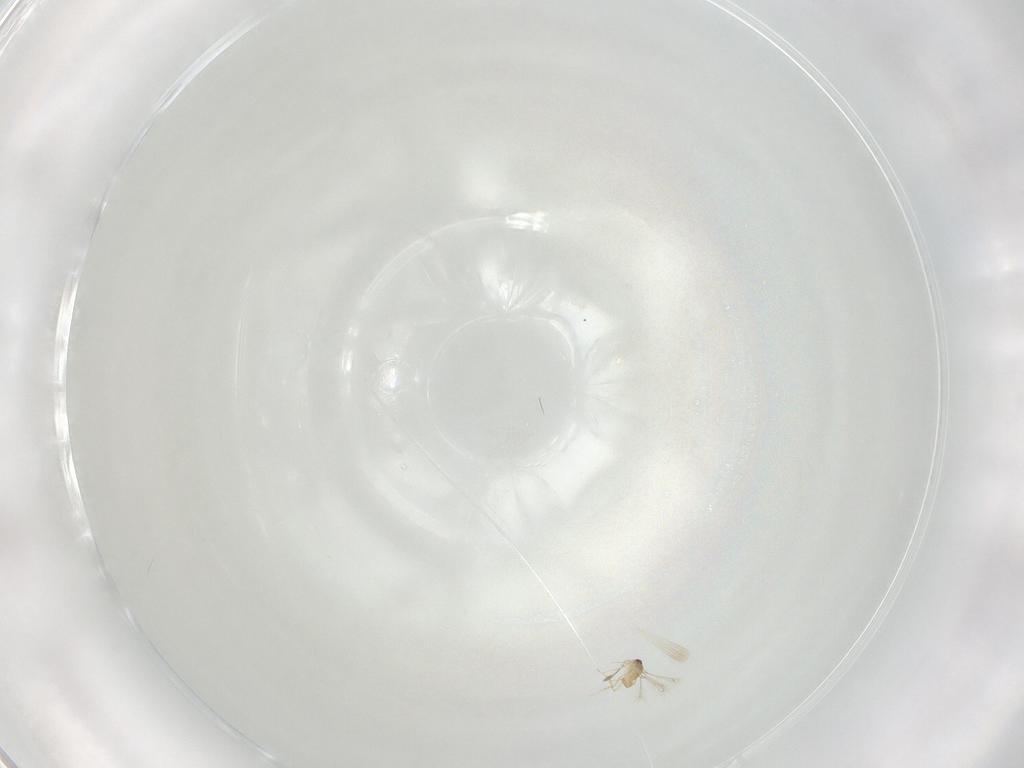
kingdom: Animalia
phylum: Arthropoda
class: Insecta
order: Hymenoptera
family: Mymaridae
